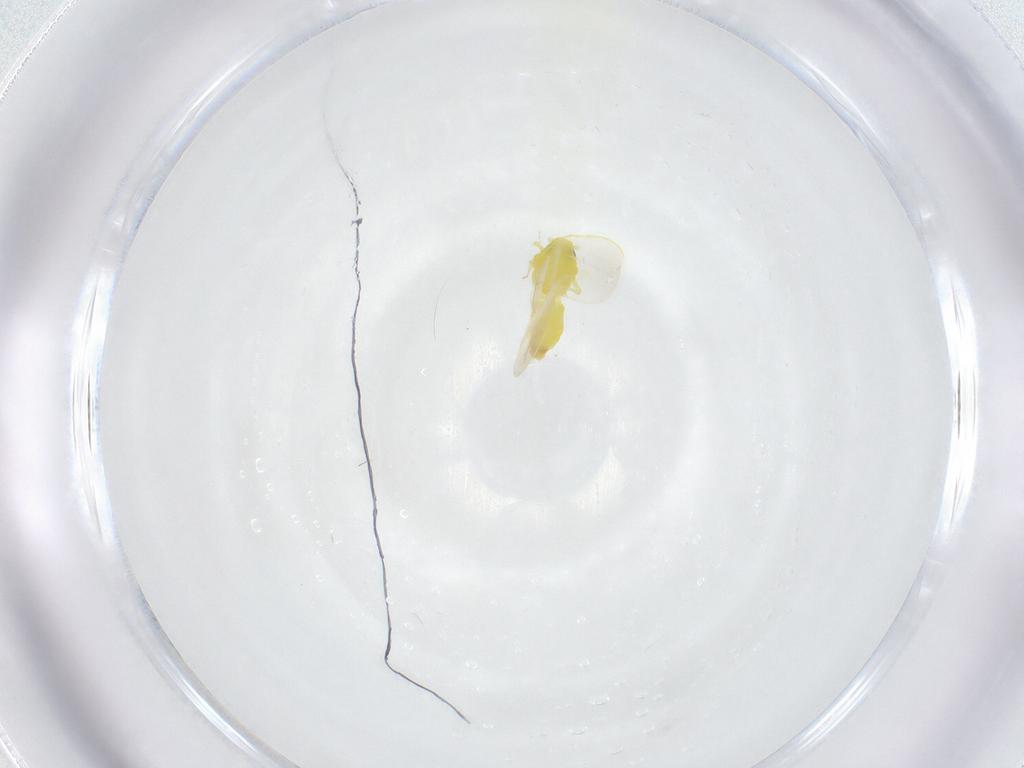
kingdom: Animalia
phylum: Arthropoda
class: Insecta
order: Hemiptera
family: Aleyrodidae
